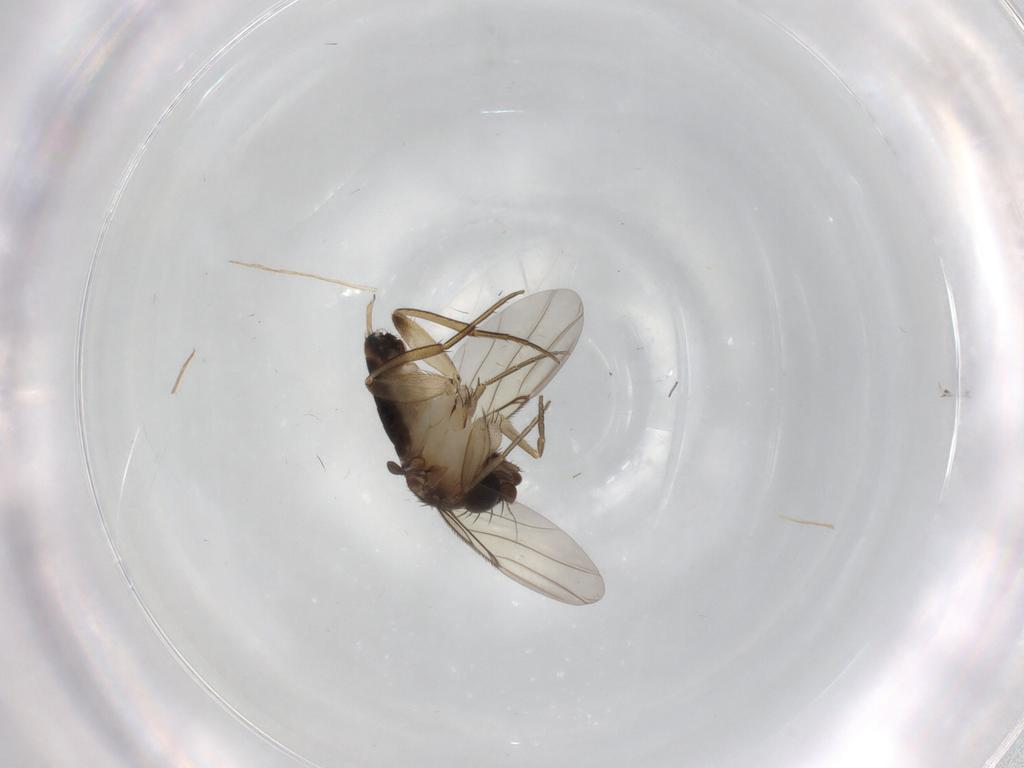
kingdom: Animalia
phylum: Arthropoda
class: Insecta
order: Diptera
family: Phoridae
